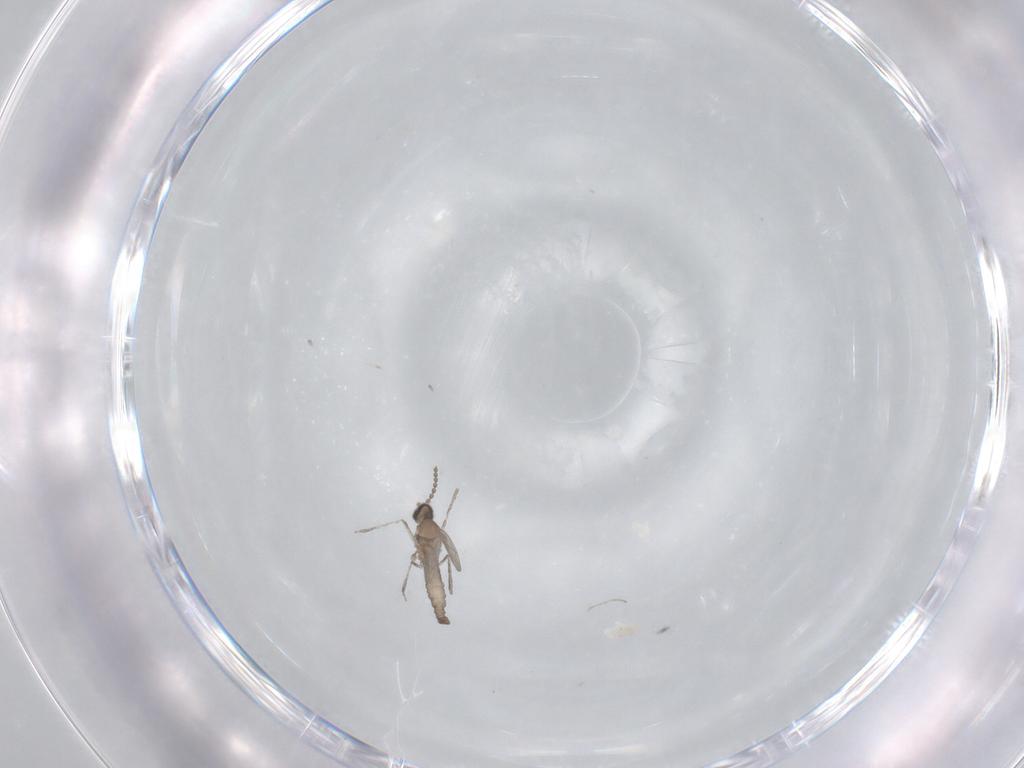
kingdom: Animalia
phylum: Arthropoda
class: Insecta
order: Diptera
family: Cecidomyiidae
